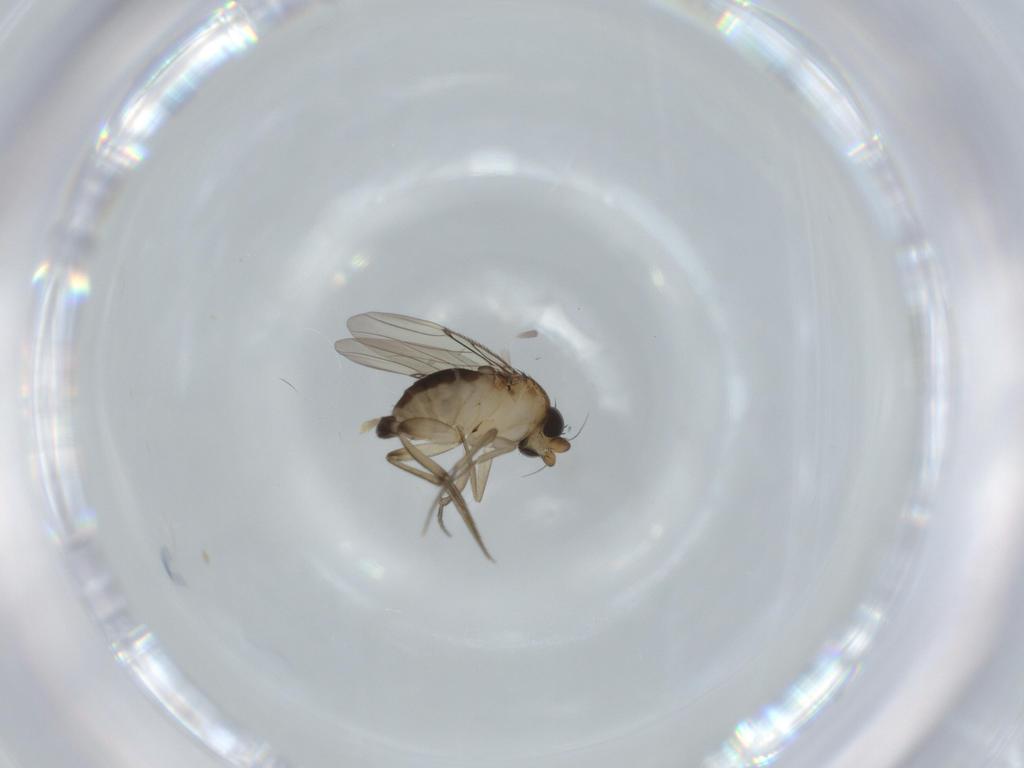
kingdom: Animalia
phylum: Arthropoda
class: Insecta
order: Diptera
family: Phoridae
